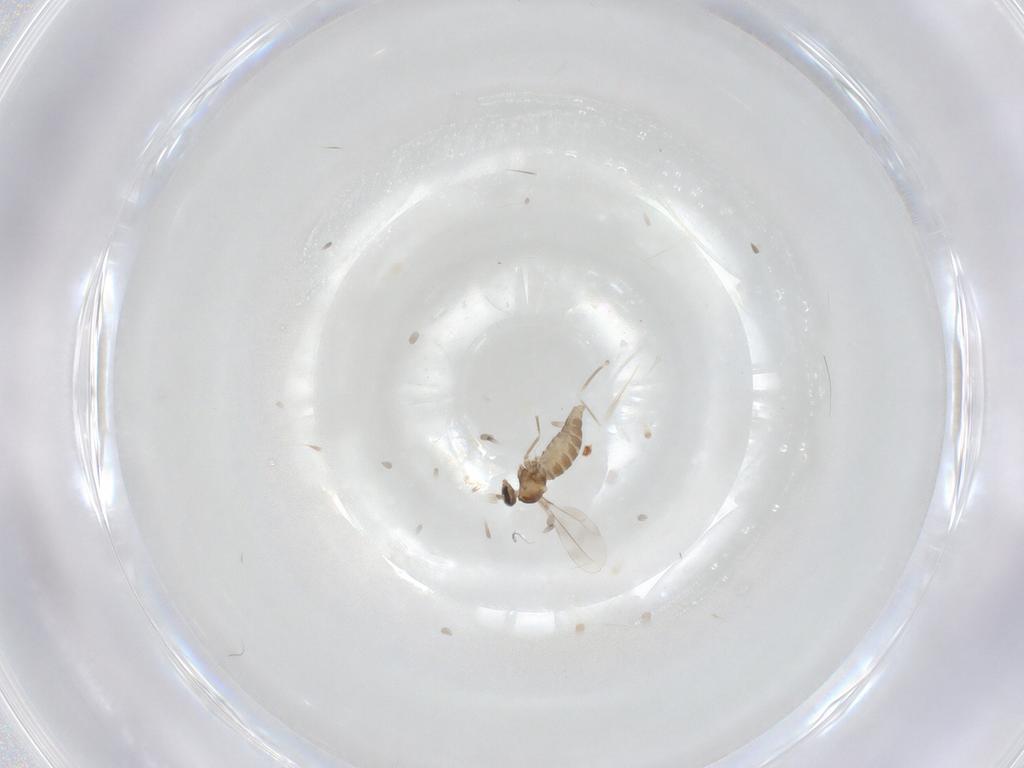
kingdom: Animalia
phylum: Arthropoda
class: Insecta
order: Diptera
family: Cecidomyiidae
